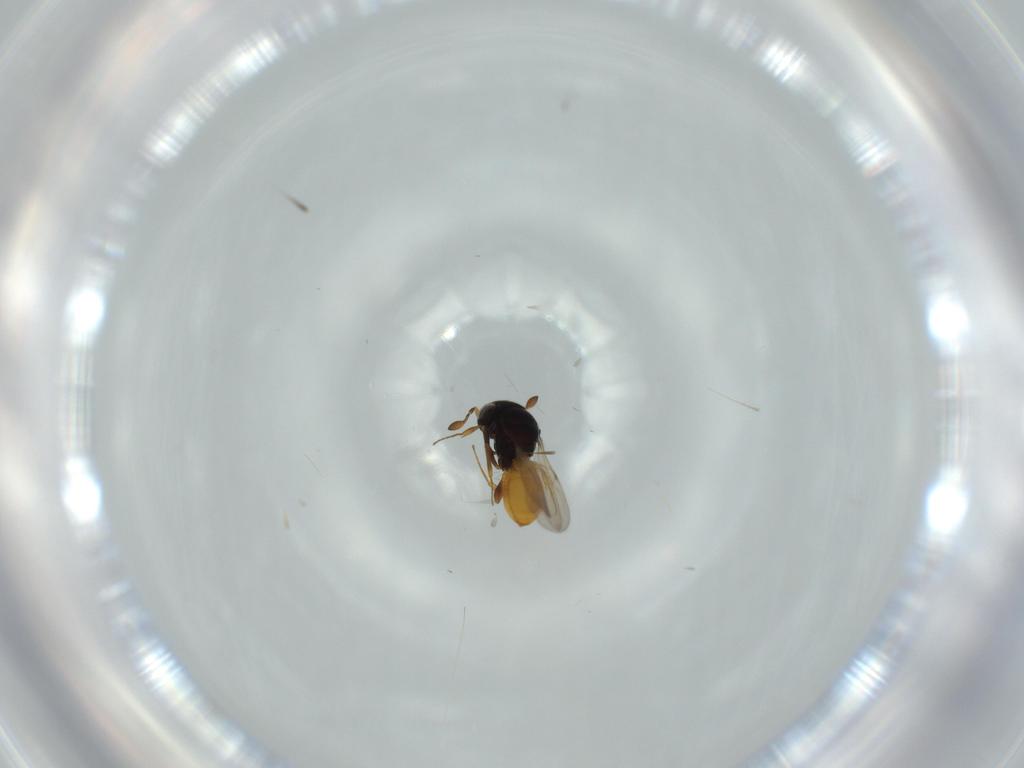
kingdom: Animalia
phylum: Arthropoda
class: Insecta
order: Hymenoptera
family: Scelionidae
